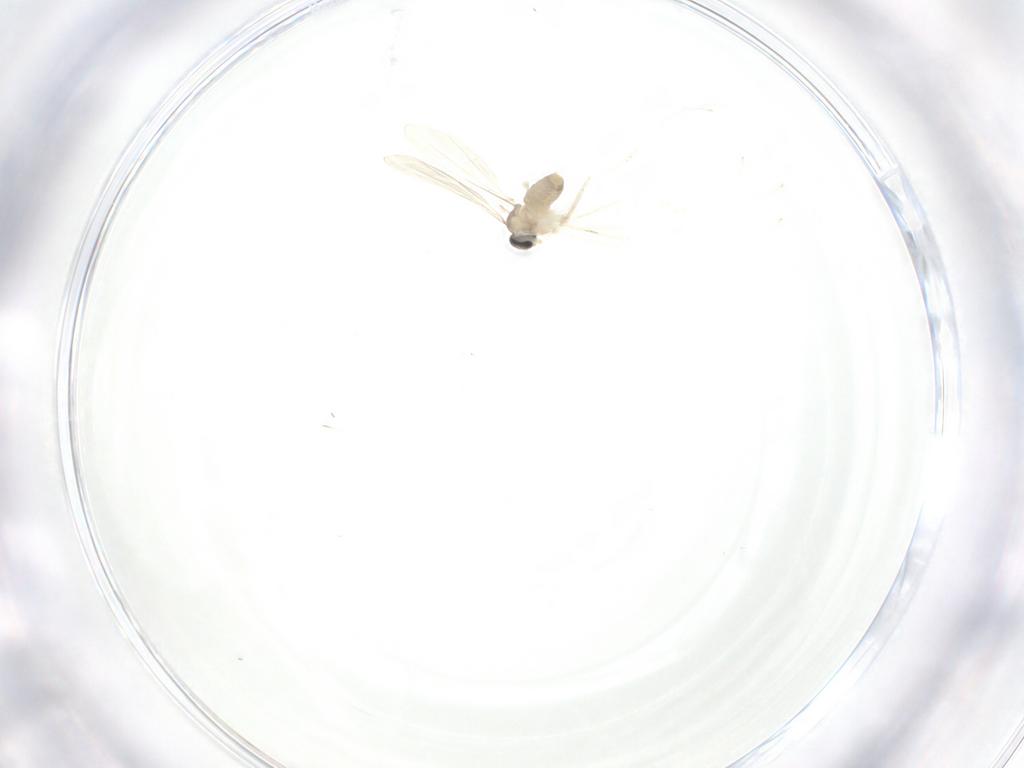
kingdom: Animalia
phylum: Arthropoda
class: Insecta
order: Diptera
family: Cecidomyiidae
